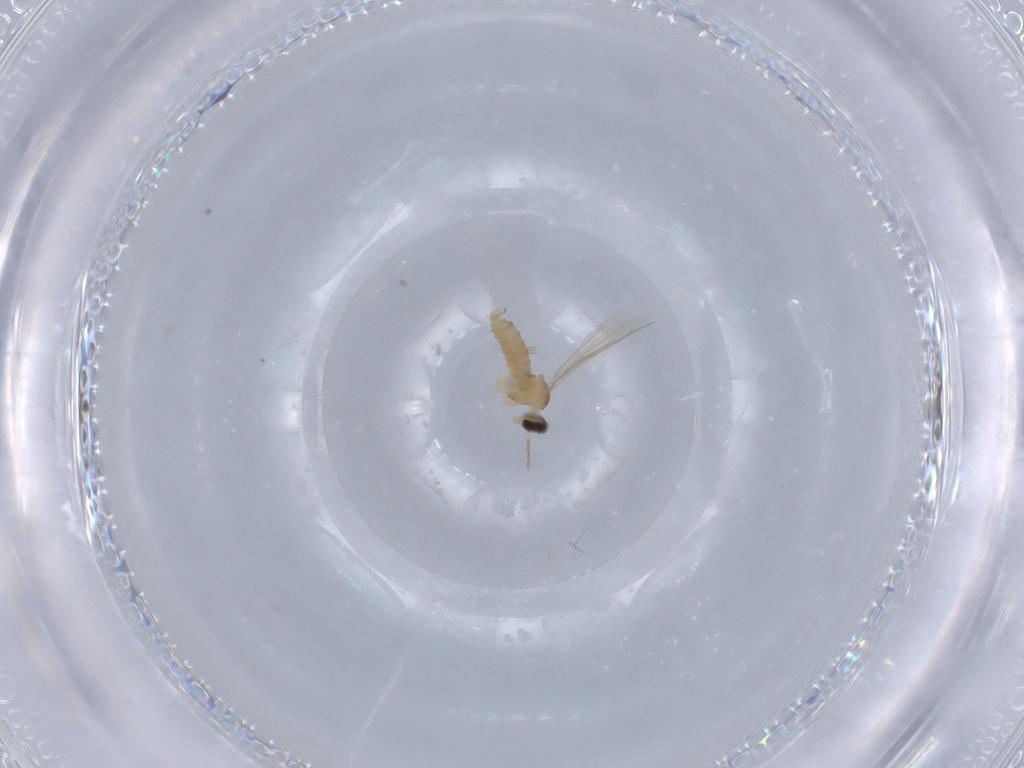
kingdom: Animalia
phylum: Arthropoda
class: Insecta
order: Diptera
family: Cecidomyiidae
